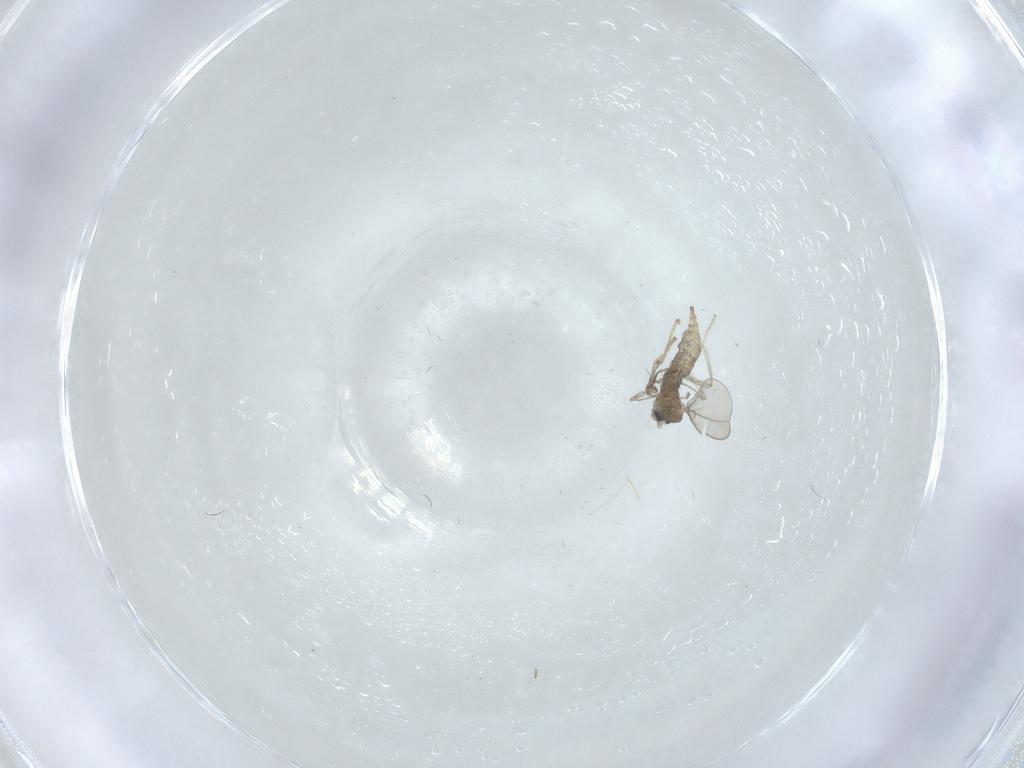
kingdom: Animalia
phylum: Arthropoda
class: Insecta
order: Diptera
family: Cecidomyiidae
